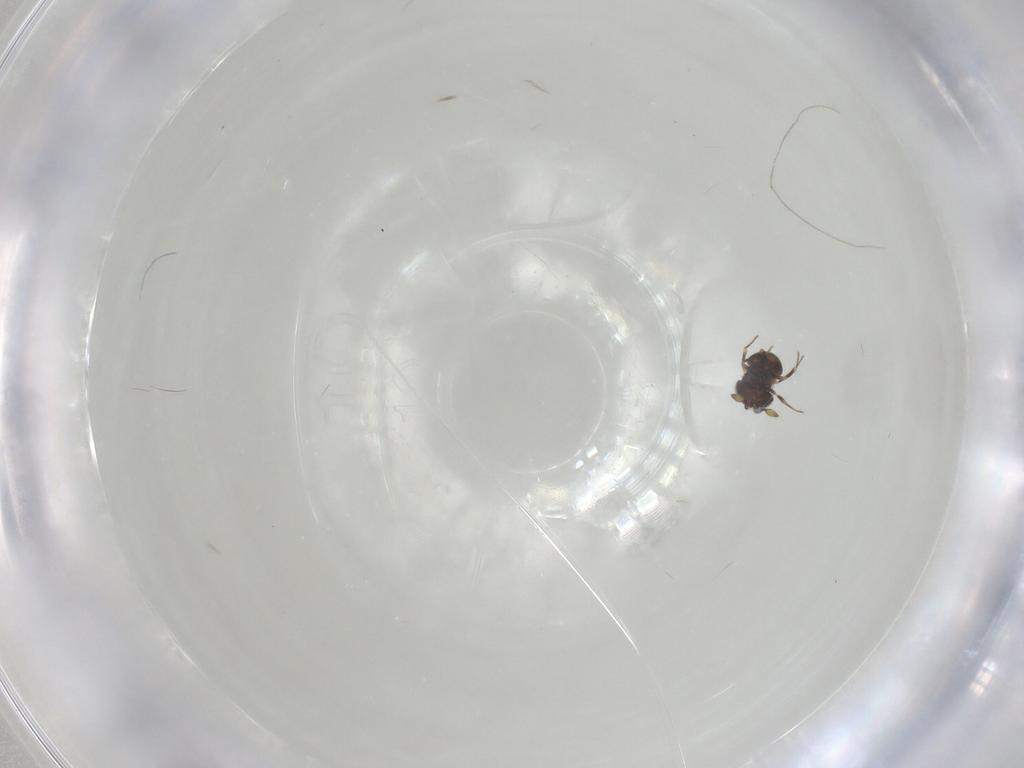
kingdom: Animalia
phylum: Arthropoda
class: Insecta
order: Hymenoptera
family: Scelionidae
